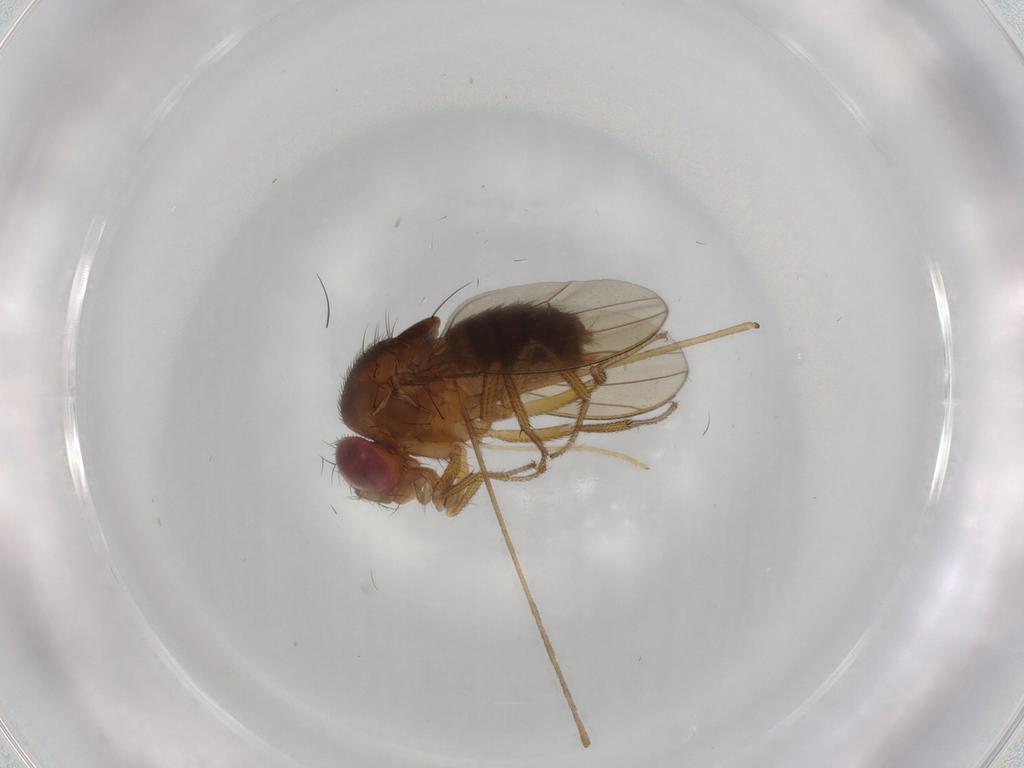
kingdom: Animalia
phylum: Arthropoda
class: Insecta
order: Diptera
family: Drosophilidae
